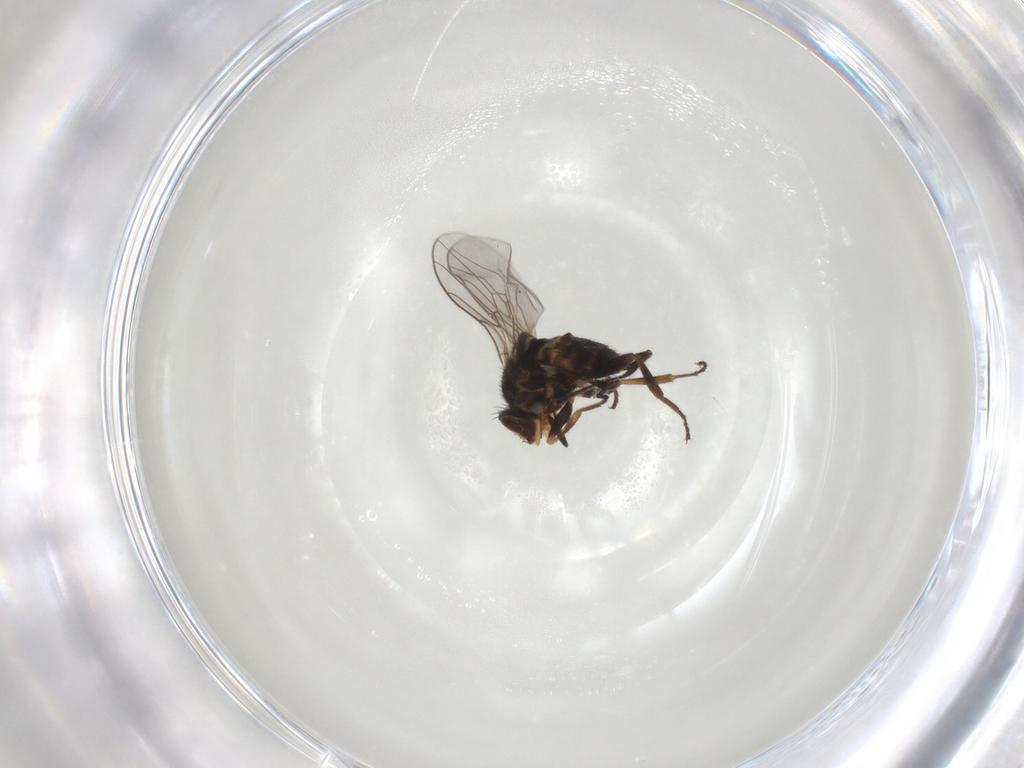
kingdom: Animalia
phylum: Arthropoda
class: Insecta
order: Diptera
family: Chloropidae
